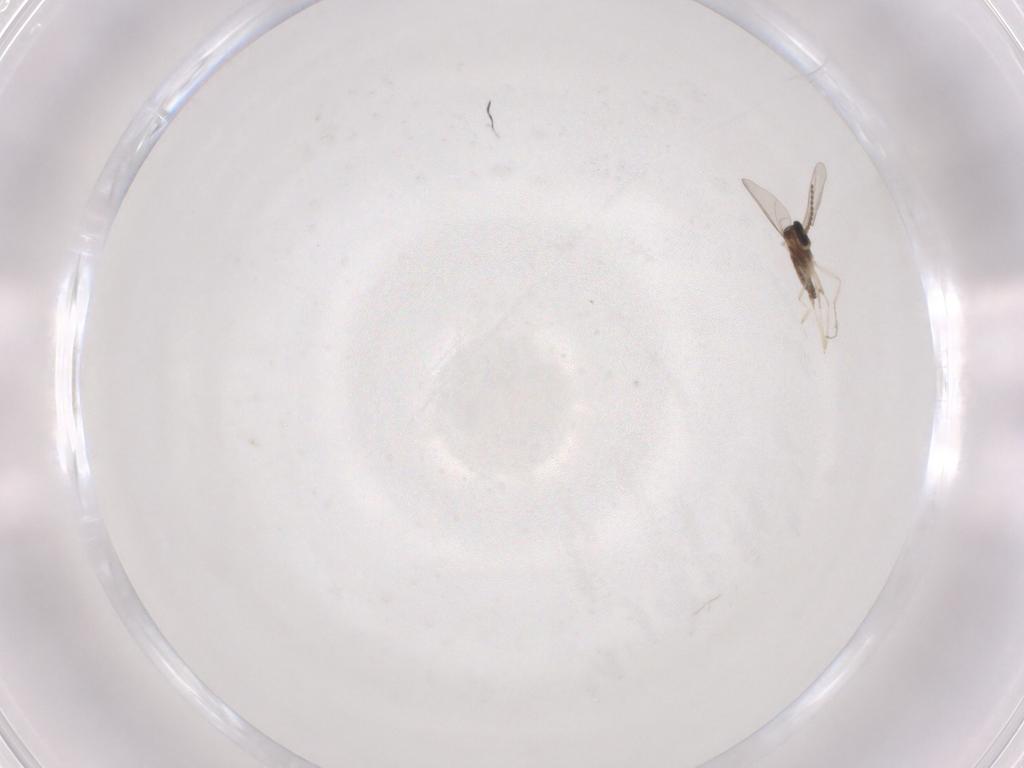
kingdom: Animalia
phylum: Arthropoda
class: Insecta
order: Diptera
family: Cecidomyiidae
